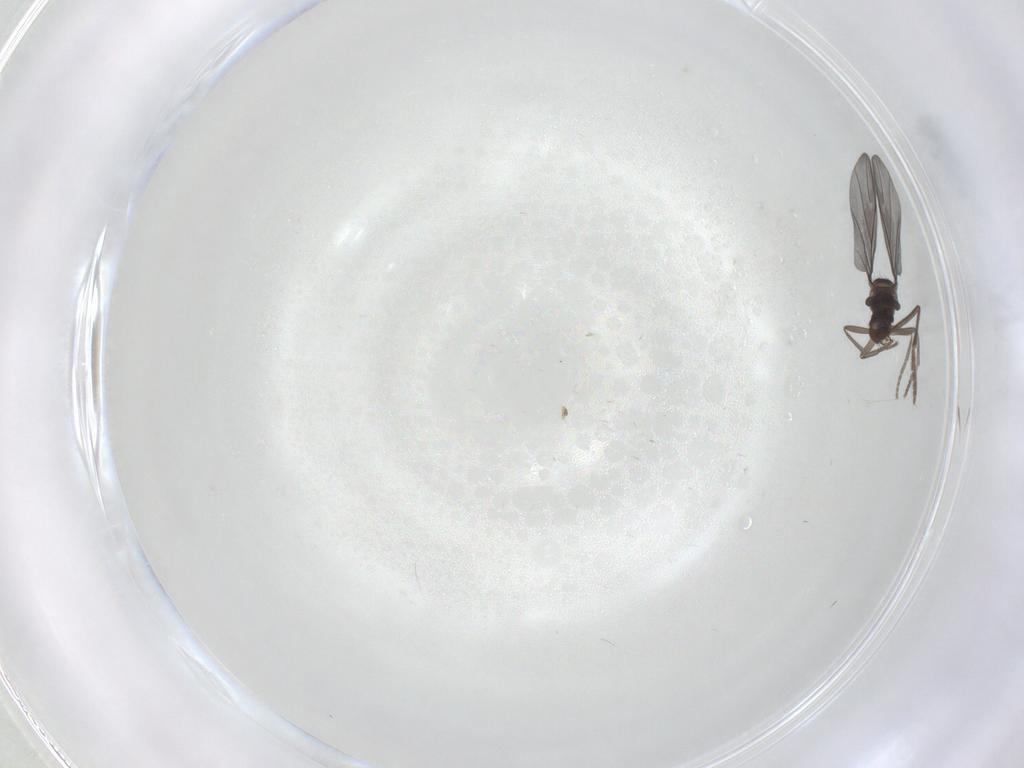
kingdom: Animalia
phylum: Arthropoda
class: Insecta
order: Diptera
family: Phoridae
